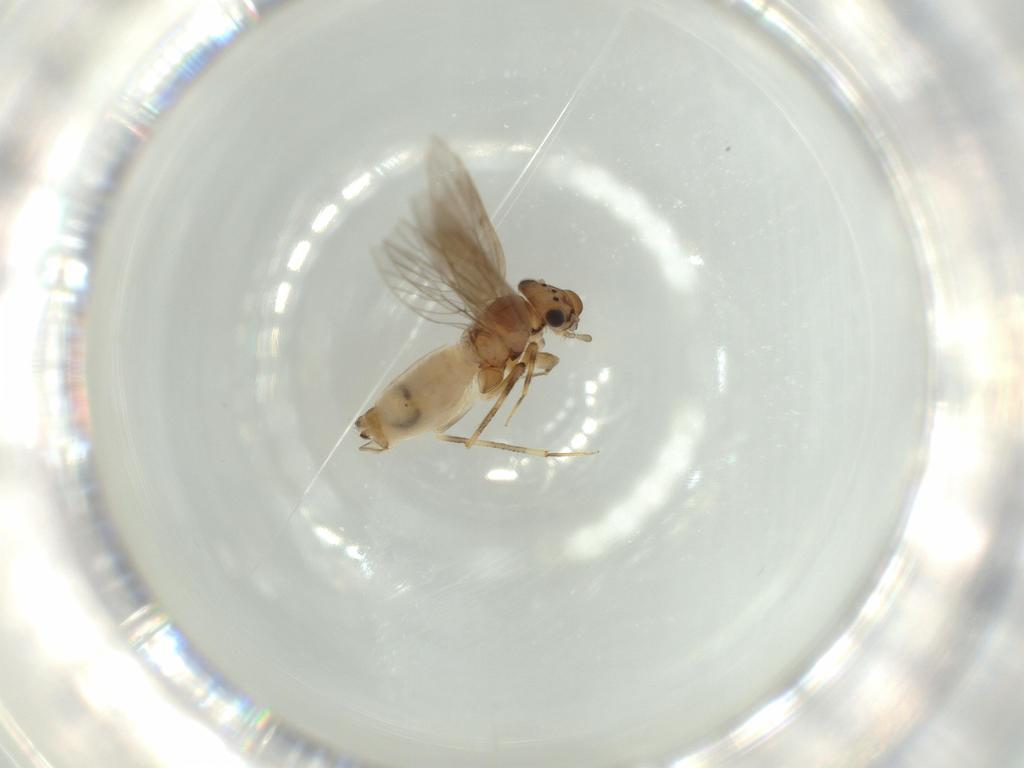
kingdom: Animalia
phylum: Arthropoda
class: Insecta
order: Psocodea
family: Lepidopsocidae
